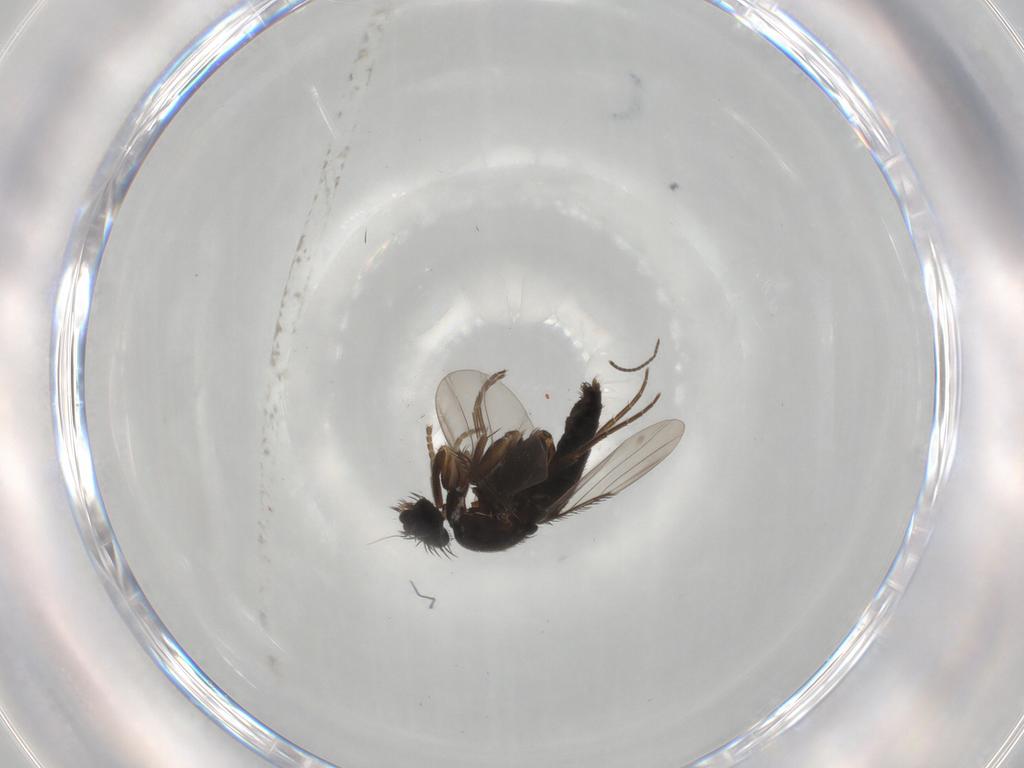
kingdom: Animalia
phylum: Arthropoda
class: Insecta
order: Diptera
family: Phoridae
